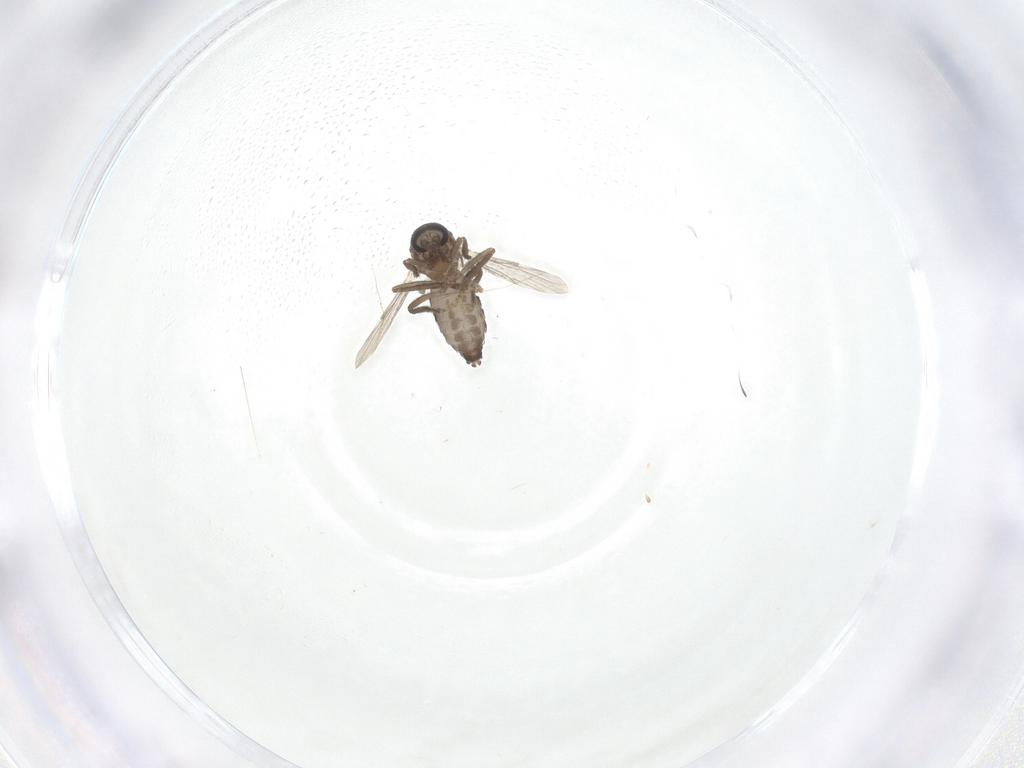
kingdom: Animalia
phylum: Arthropoda
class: Insecta
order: Diptera
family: Ceratopogonidae
